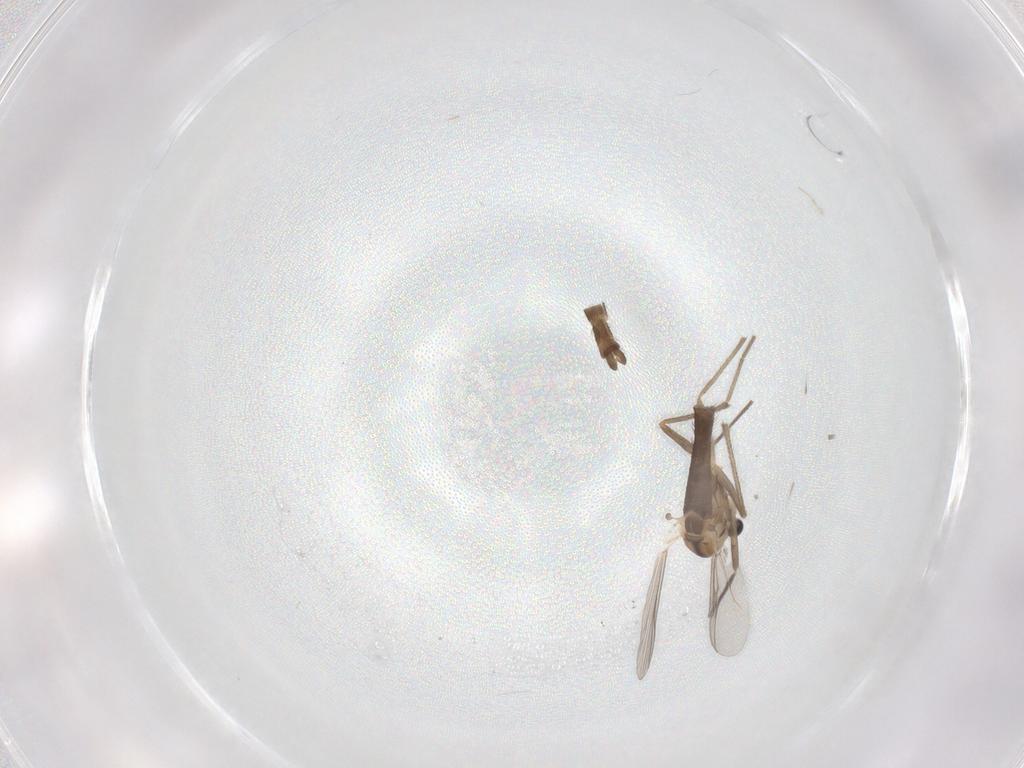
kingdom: Animalia
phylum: Arthropoda
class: Insecta
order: Diptera
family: Chironomidae
